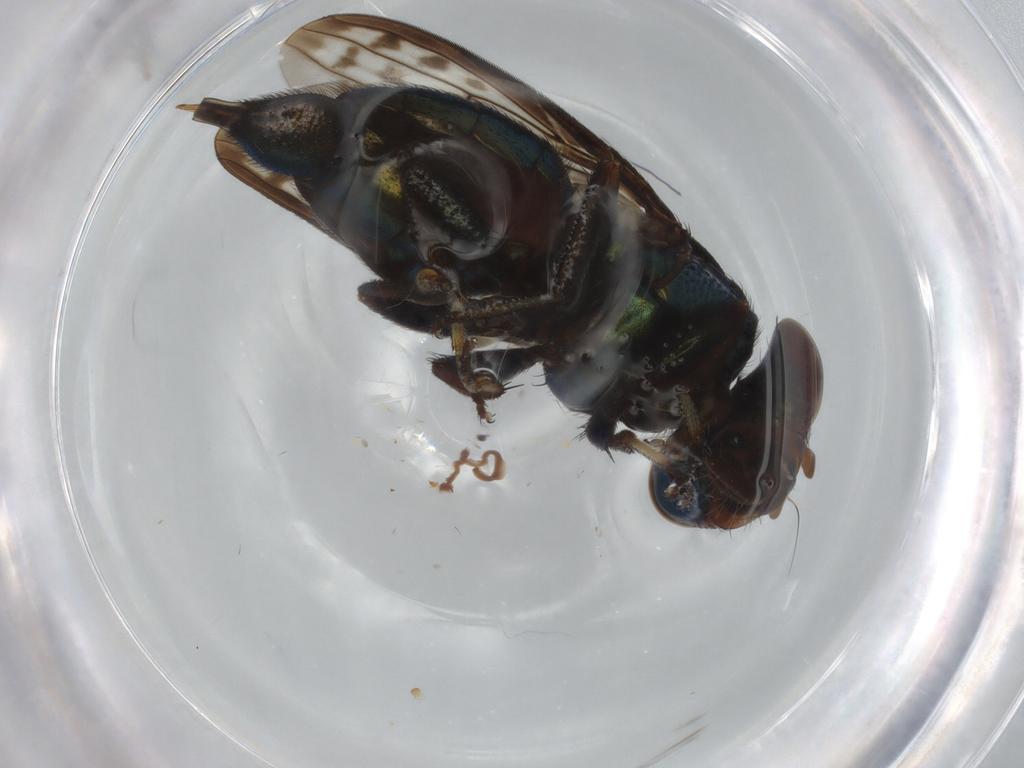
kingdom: Animalia
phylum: Arthropoda
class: Insecta
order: Diptera
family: Ulidiidae
